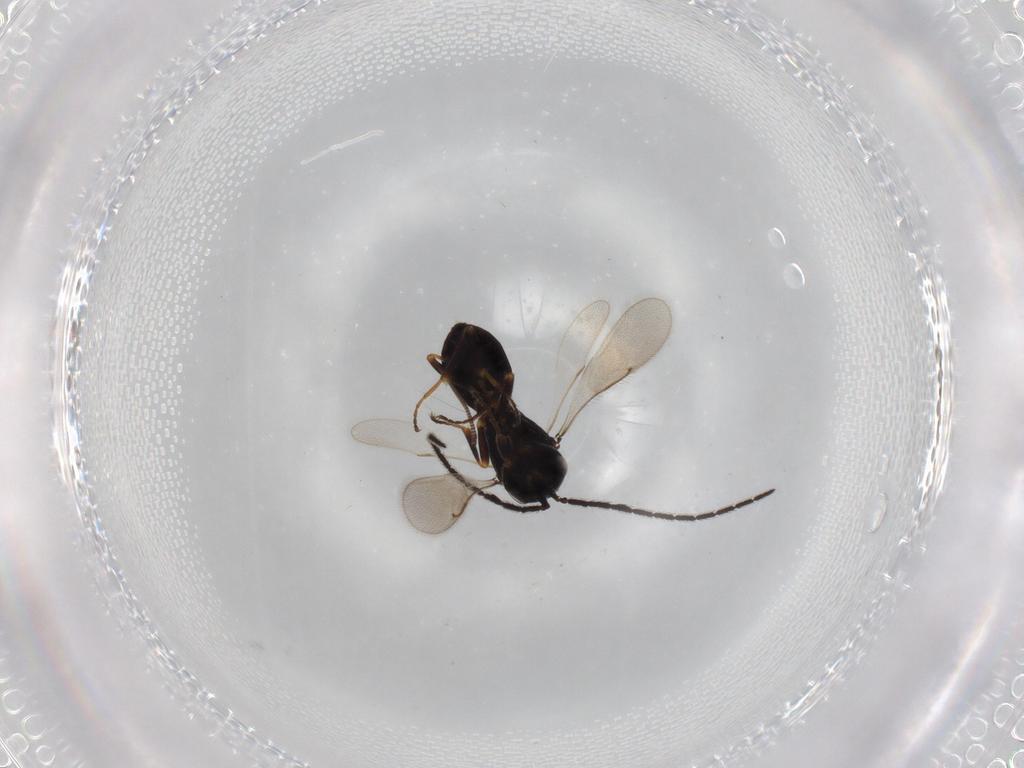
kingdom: Animalia
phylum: Arthropoda
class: Insecta
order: Hymenoptera
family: Scelionidae
